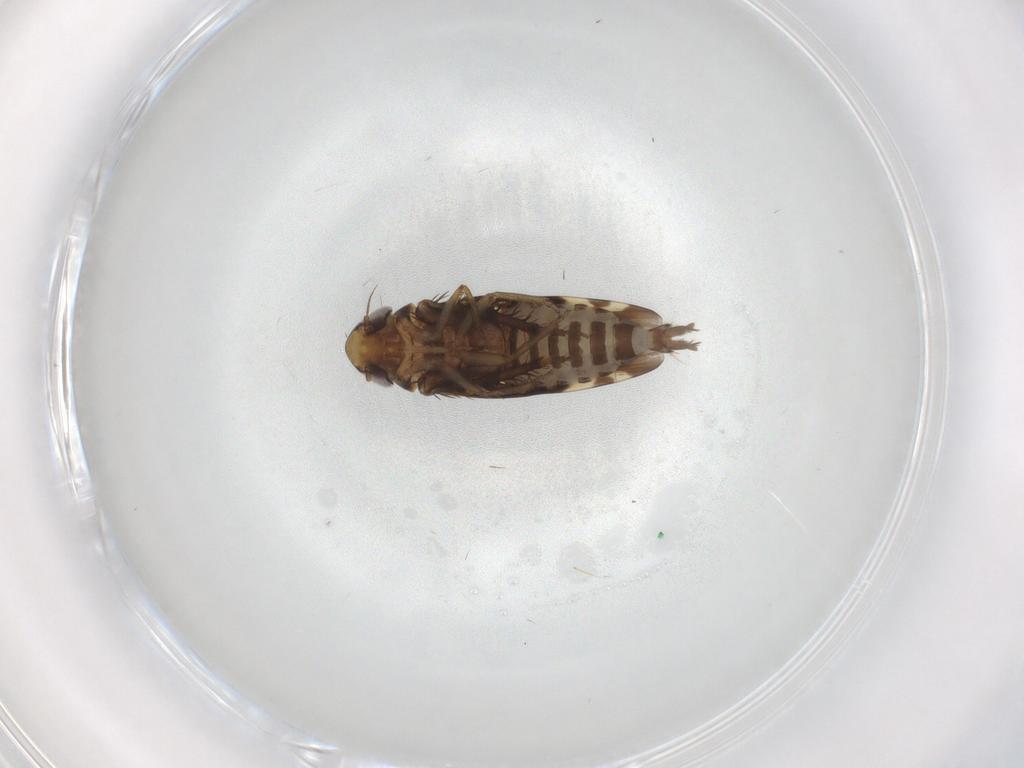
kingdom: Animalia
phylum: Arthropoda
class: Insecta
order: Hemiptera
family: Cicadellidae
